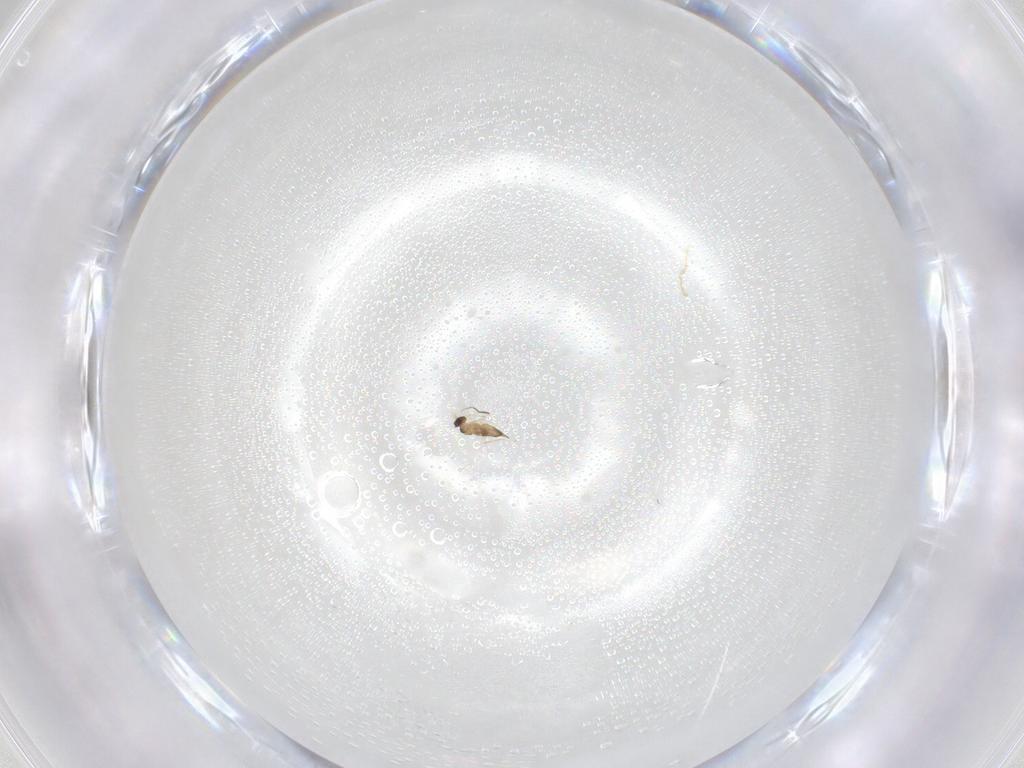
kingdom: Animalia
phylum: Arthropoda
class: Insecta
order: Hymenoptera
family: Mymaridae
